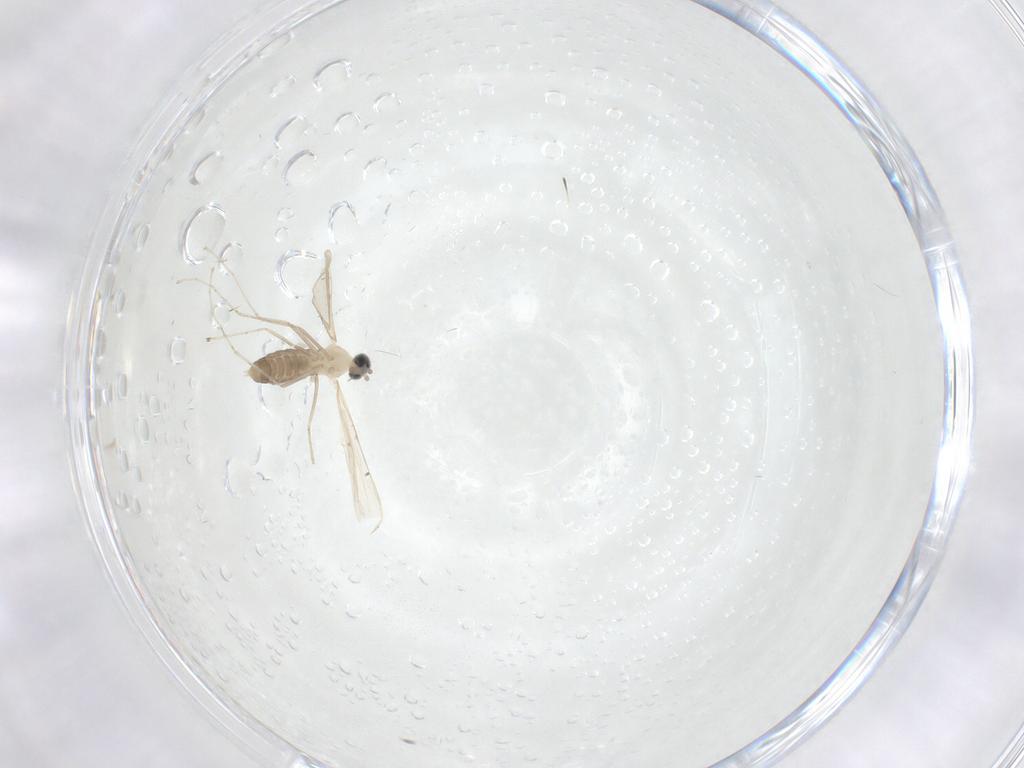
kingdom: Animalia
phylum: Arthropoda
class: Insecta
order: Diptera
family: Cecidomyiidae
